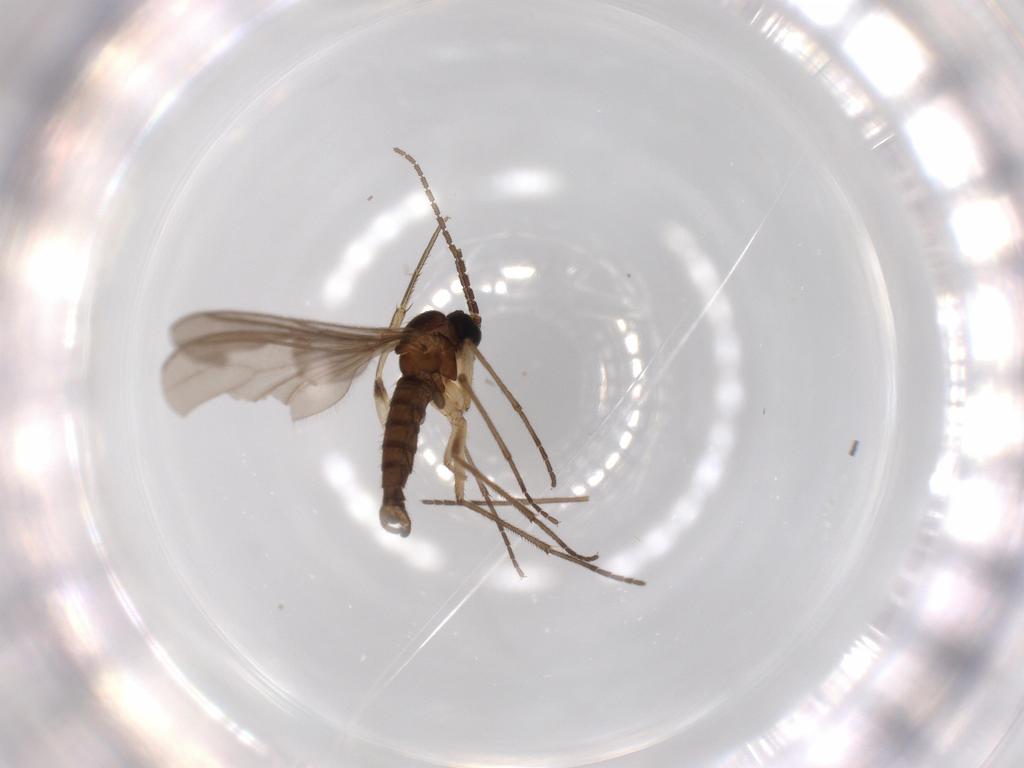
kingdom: Animalia
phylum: Arthropoda
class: Insecta
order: Diptera
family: Phoridae
